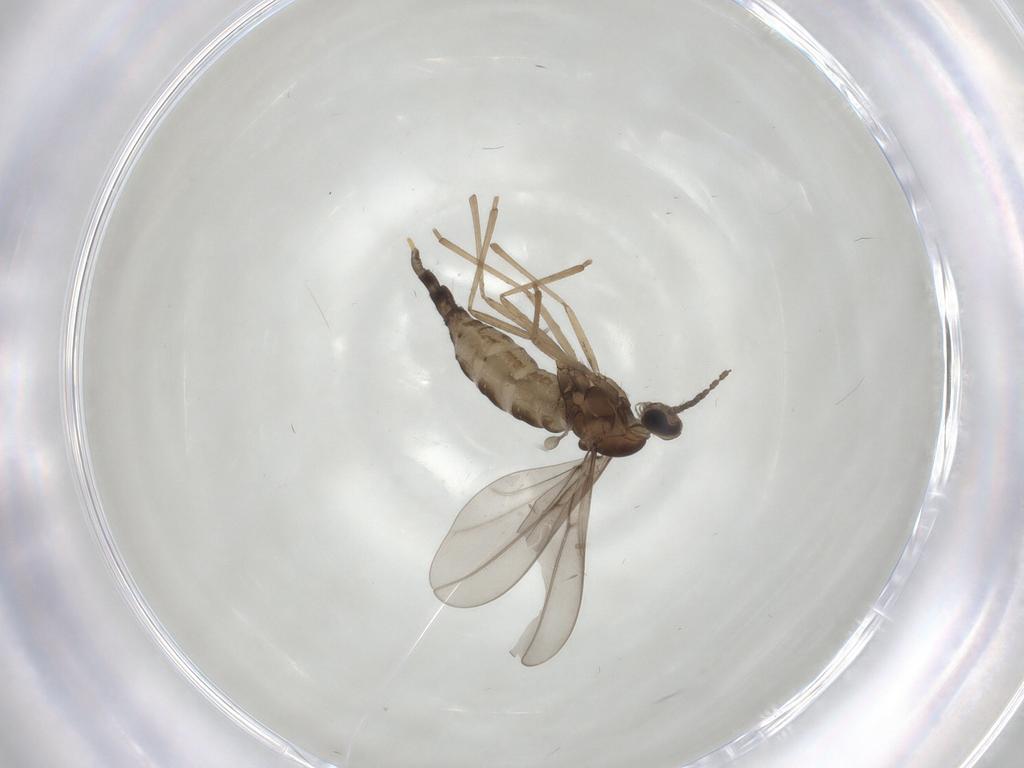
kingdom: Animalia
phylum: Arthropoda
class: Insecta
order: Diptera
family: Cecidomyiidae
